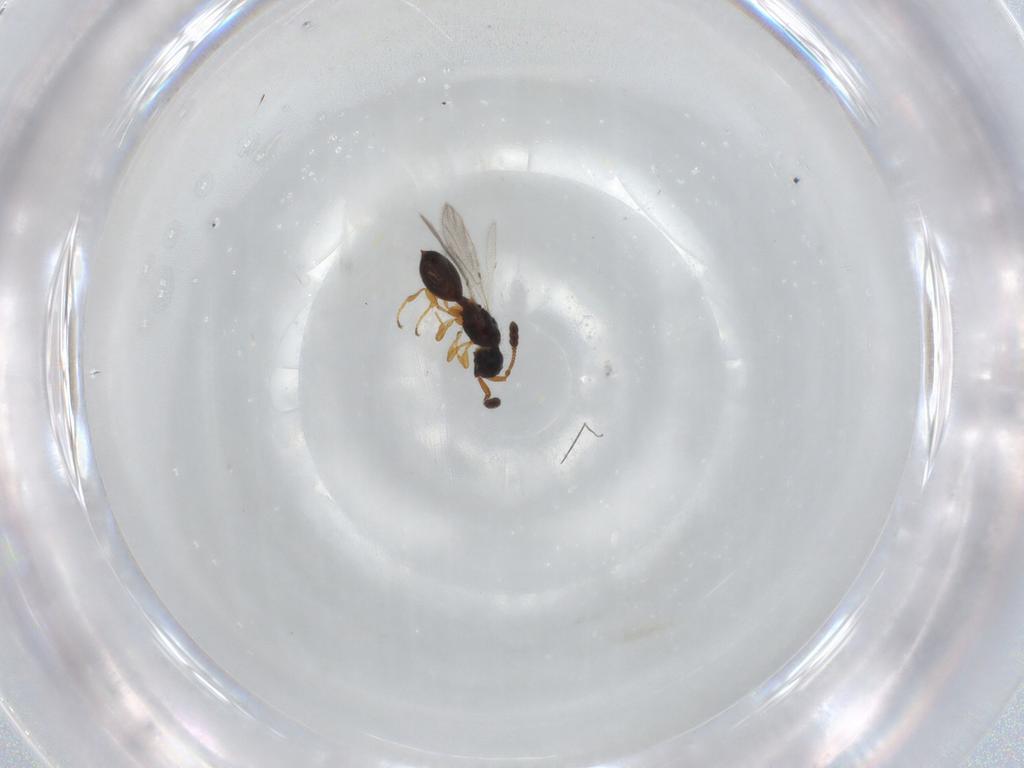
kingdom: Animalia
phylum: Arthropoda
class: Insecta
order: Hymenoptera
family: Diapriidae
